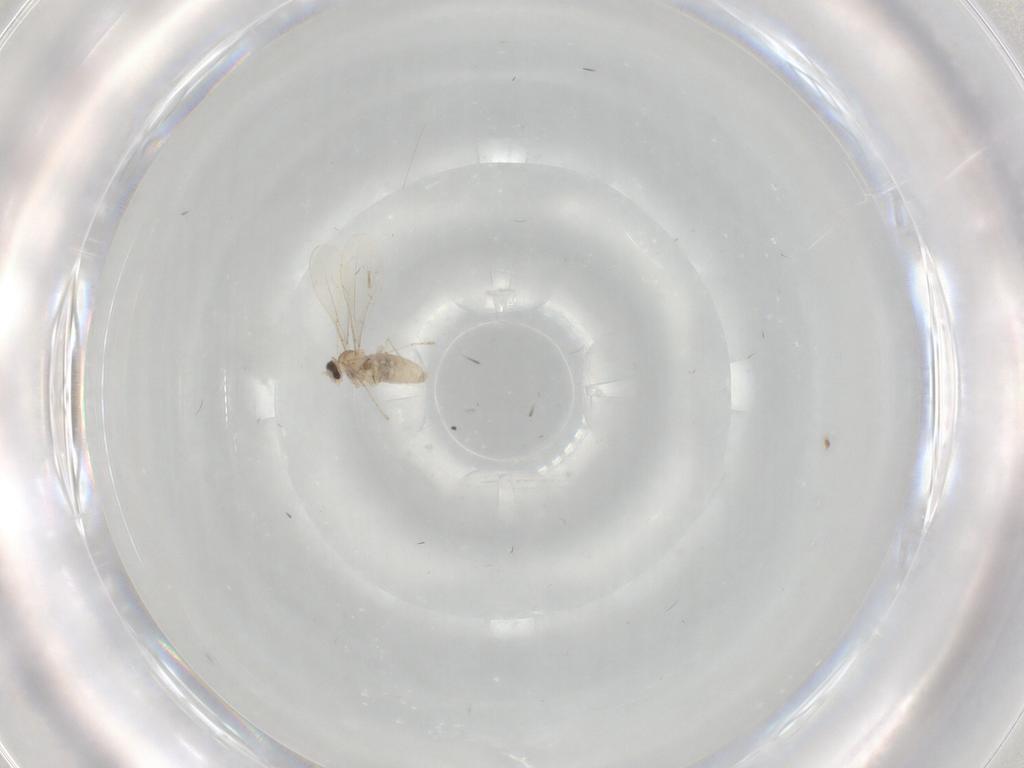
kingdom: Animalia
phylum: Arthropoda
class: Insecta
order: Diptera
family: Cecidomyiidae
